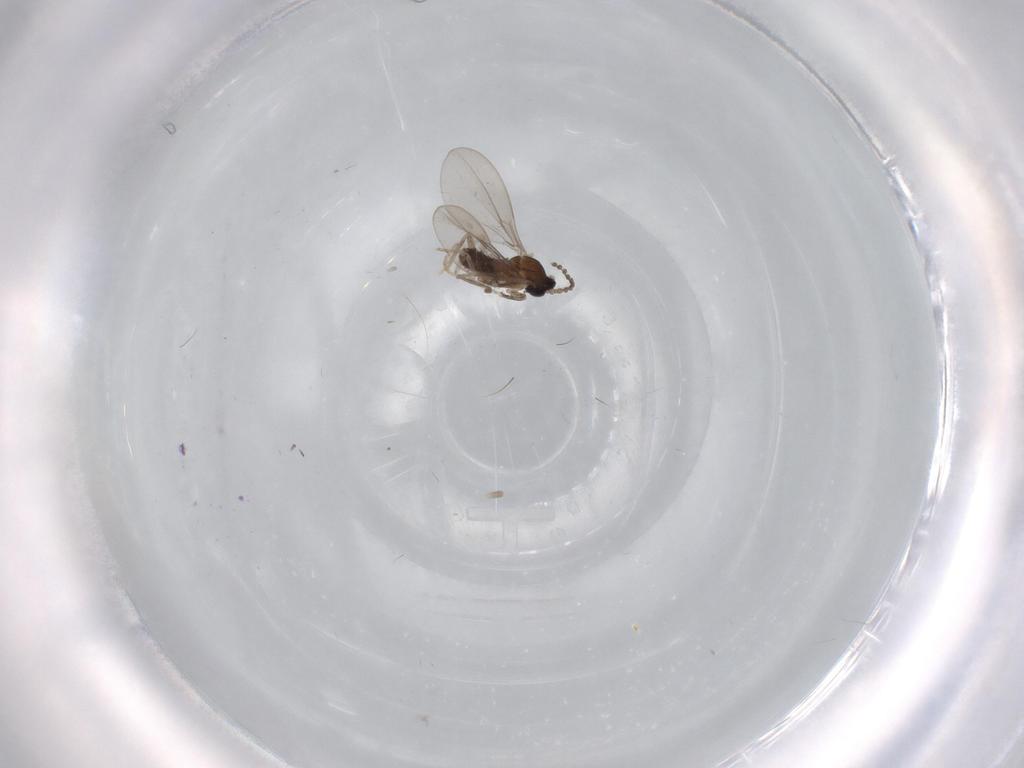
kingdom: Animalia
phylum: Arthropoda
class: Insecta
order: Diptera
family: Cecidomyiidae
